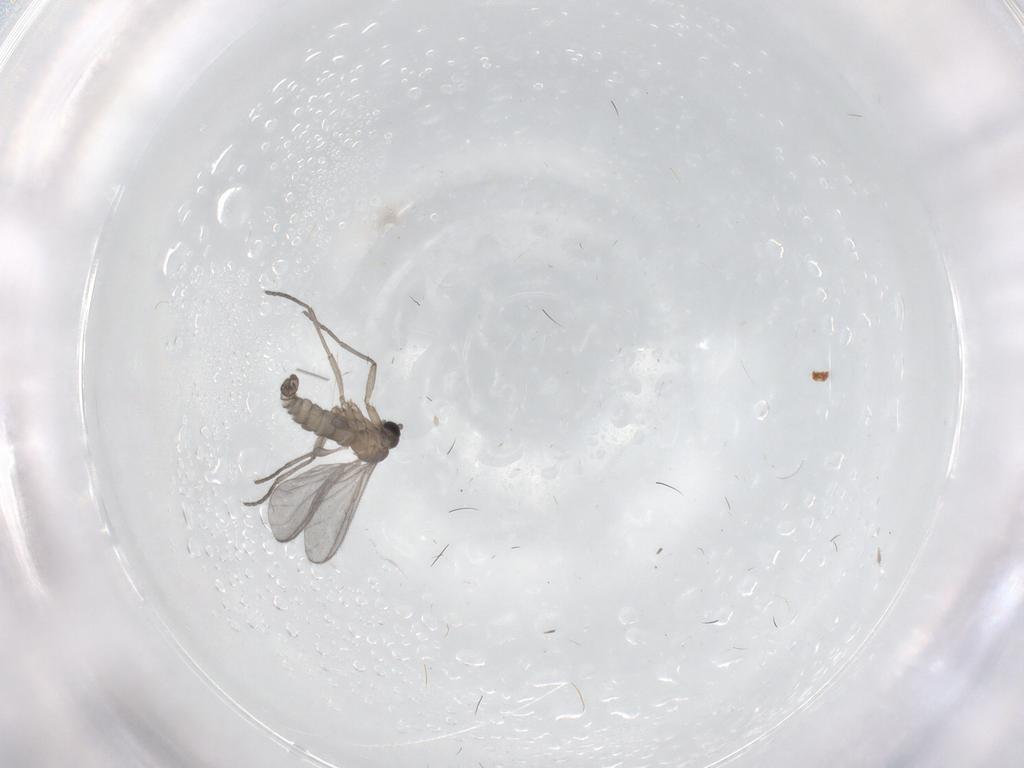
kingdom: Animalia
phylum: Arthropoda
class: Insecta
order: Diptera
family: Sciaridae
